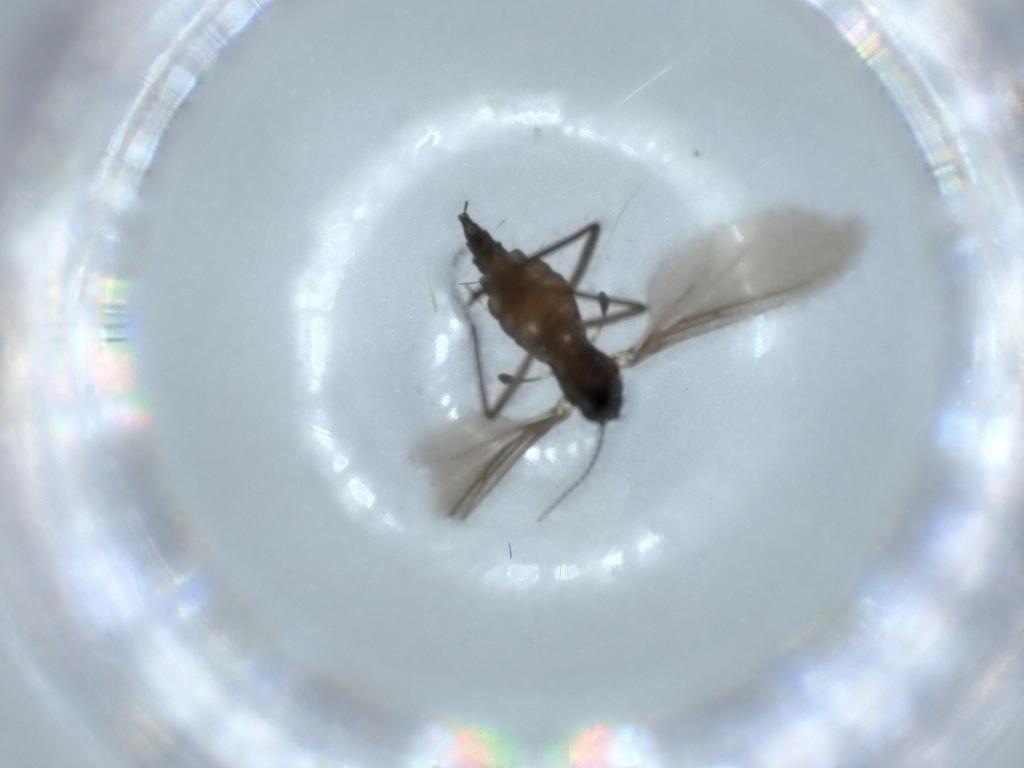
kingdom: Animalia
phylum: Arthropoda
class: Insecta
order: Diptera
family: Sciaridae
